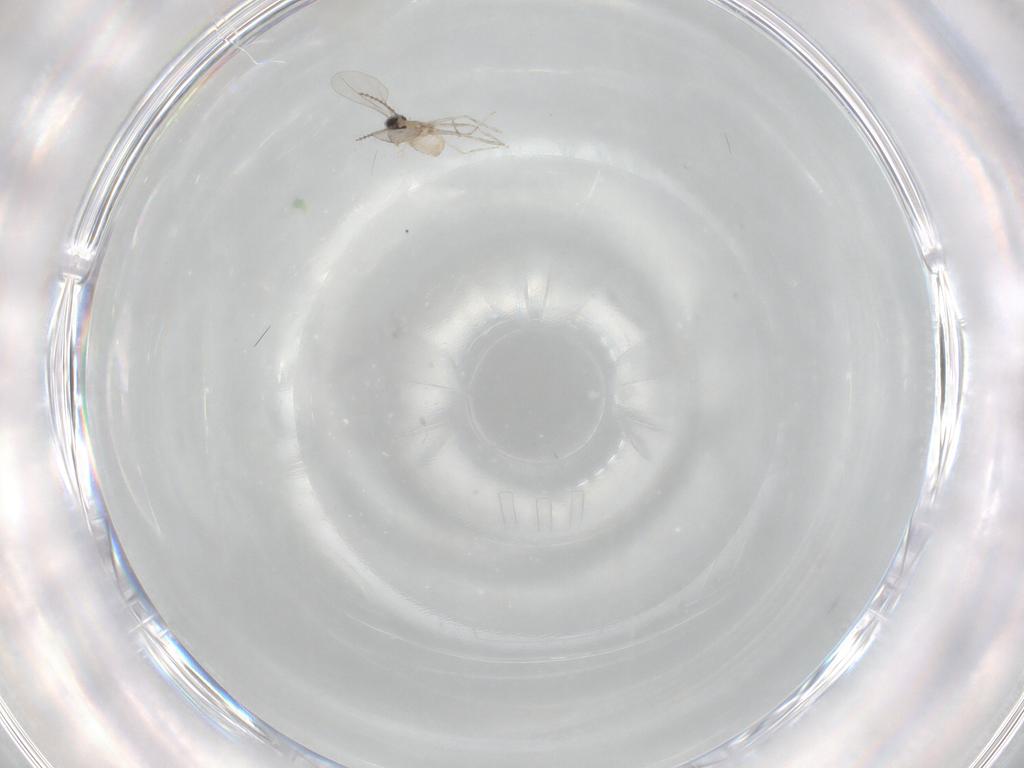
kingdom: Animalia
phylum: Arthropoda
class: Insecta
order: Diptera
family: Cecidomyiidae
